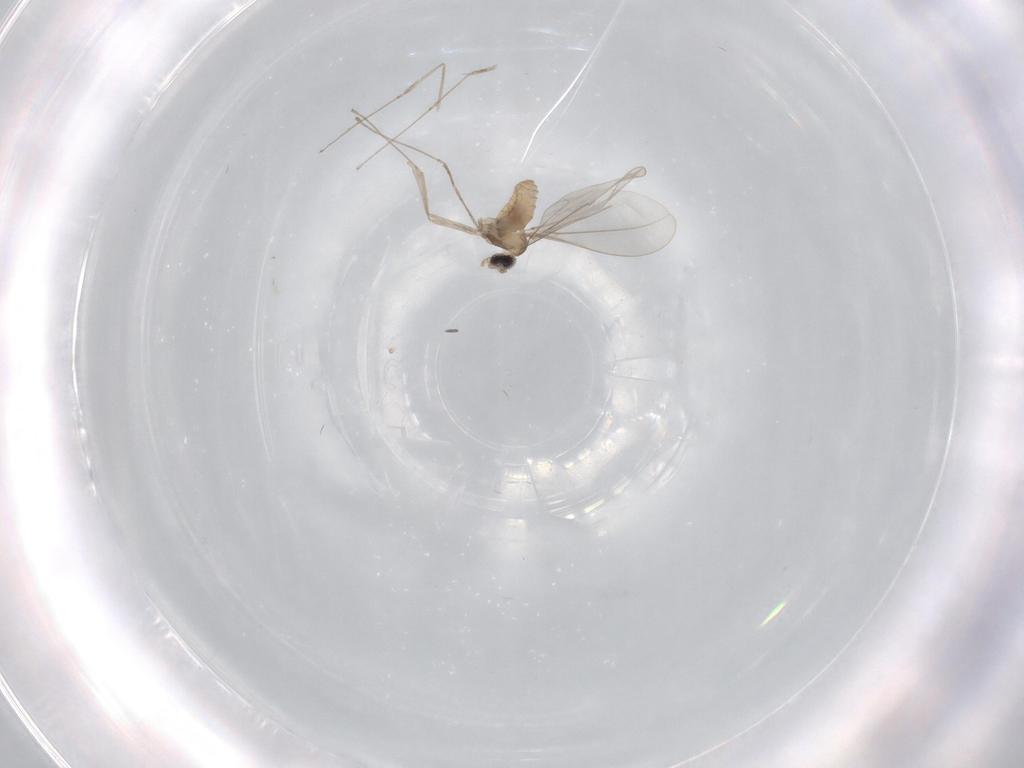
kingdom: Animalia
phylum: Arthropoda
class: Insecta
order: Diptera
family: Cecidomyiidae
